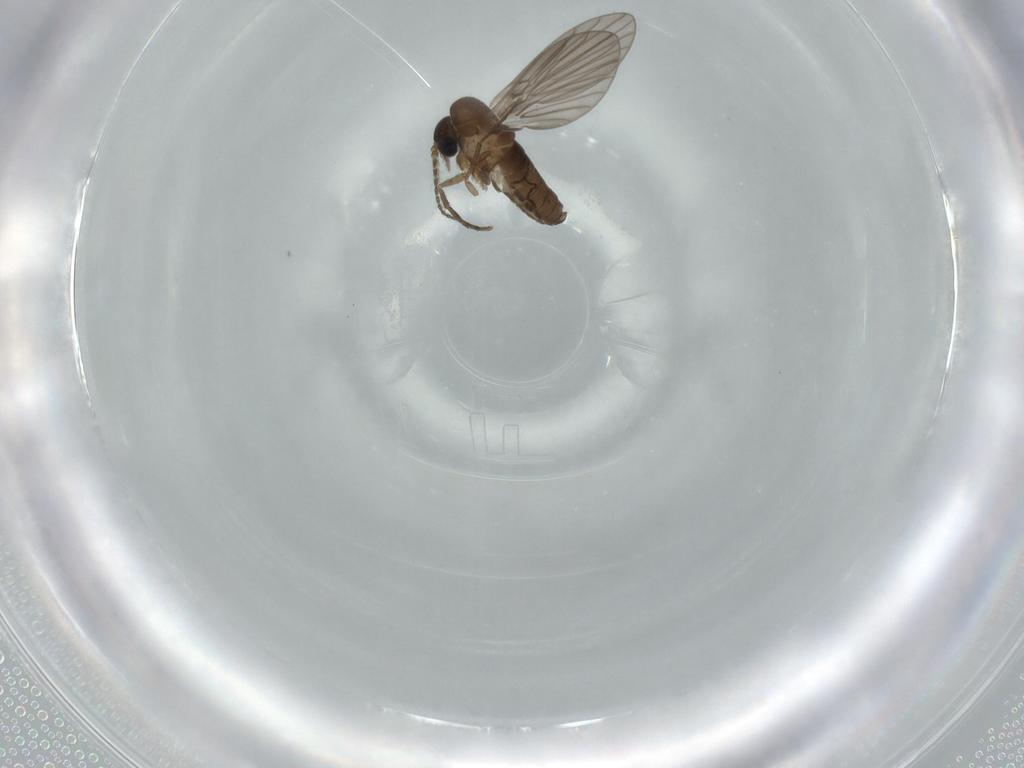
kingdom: Animalia
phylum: Arthropoda
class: Insecta
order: Diptera
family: Psychodidae
